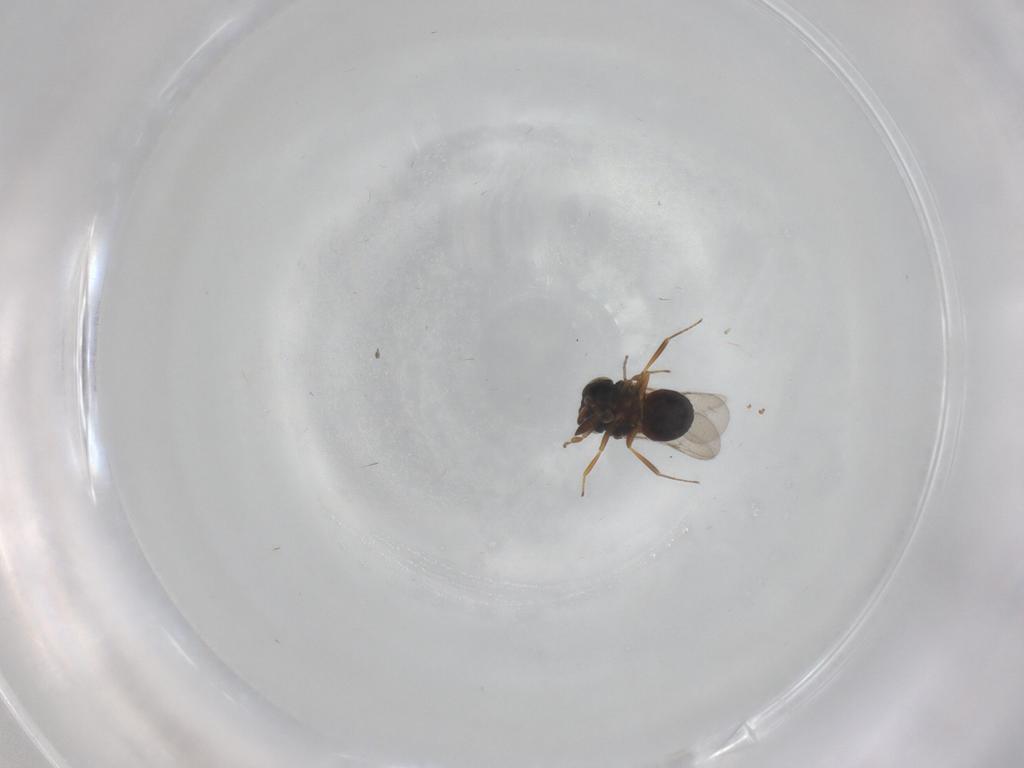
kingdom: Animalia
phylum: Arthropoda
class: Insecta
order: Hymenoptera
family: Scelionidae
